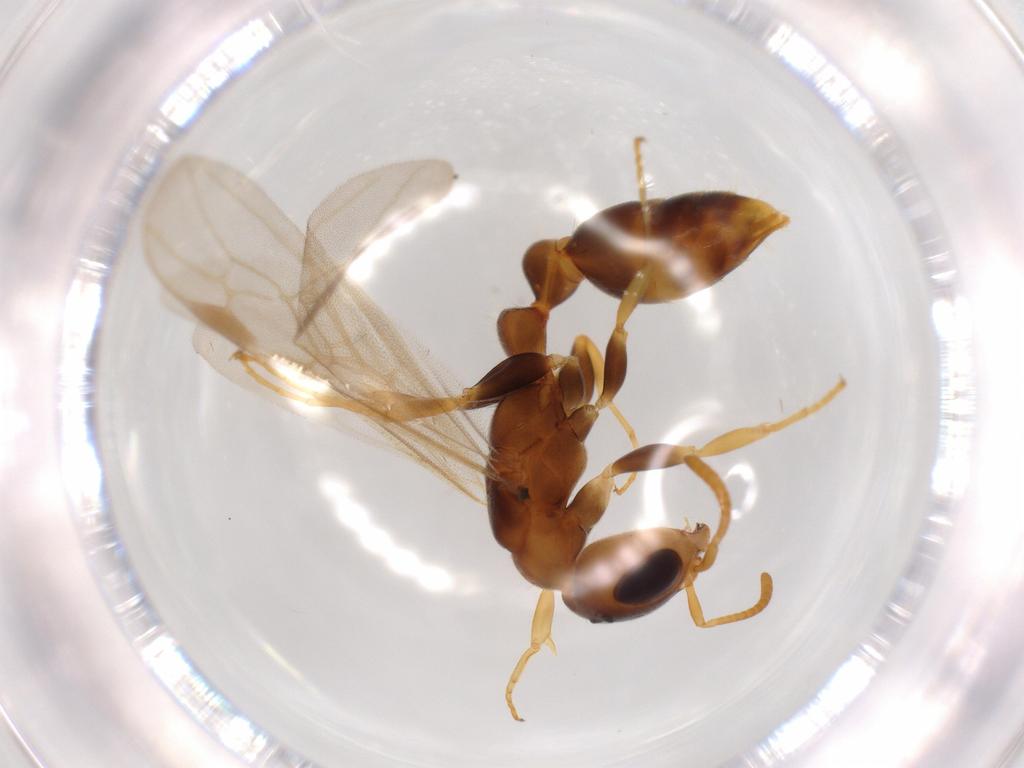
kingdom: Animalia
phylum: Arthropoda
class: Insecta
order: Hymenoptera
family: Formicidae
